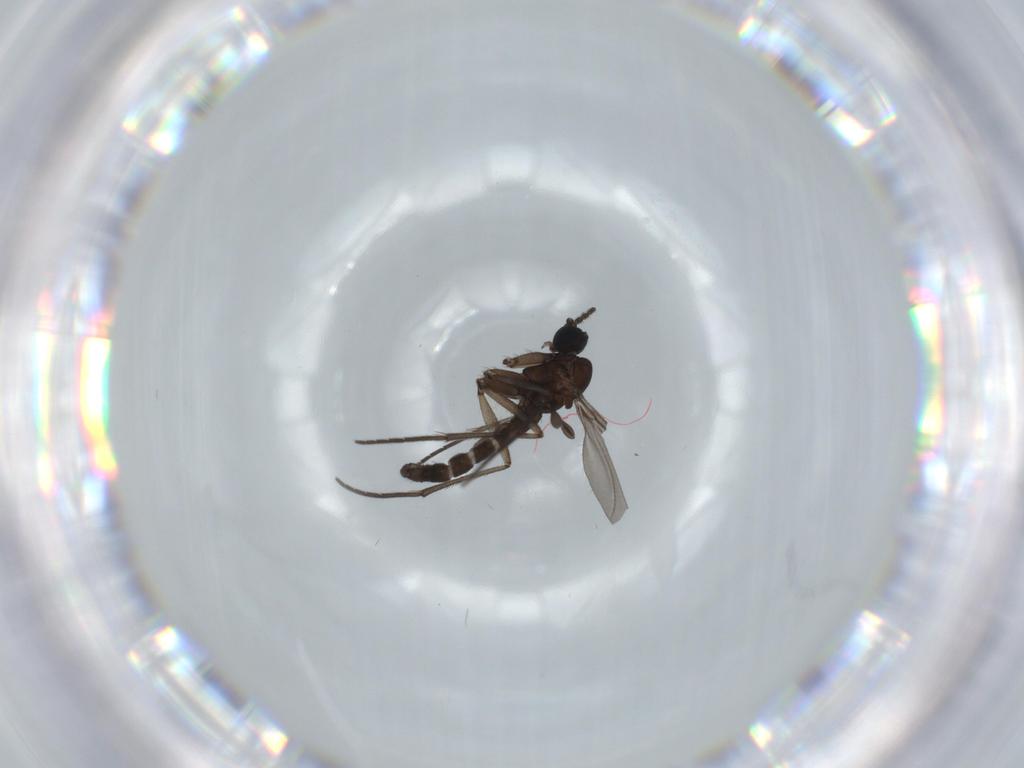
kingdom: Animalia
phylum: Arthropoda
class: Insecta
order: Diptera
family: Sciaridae
